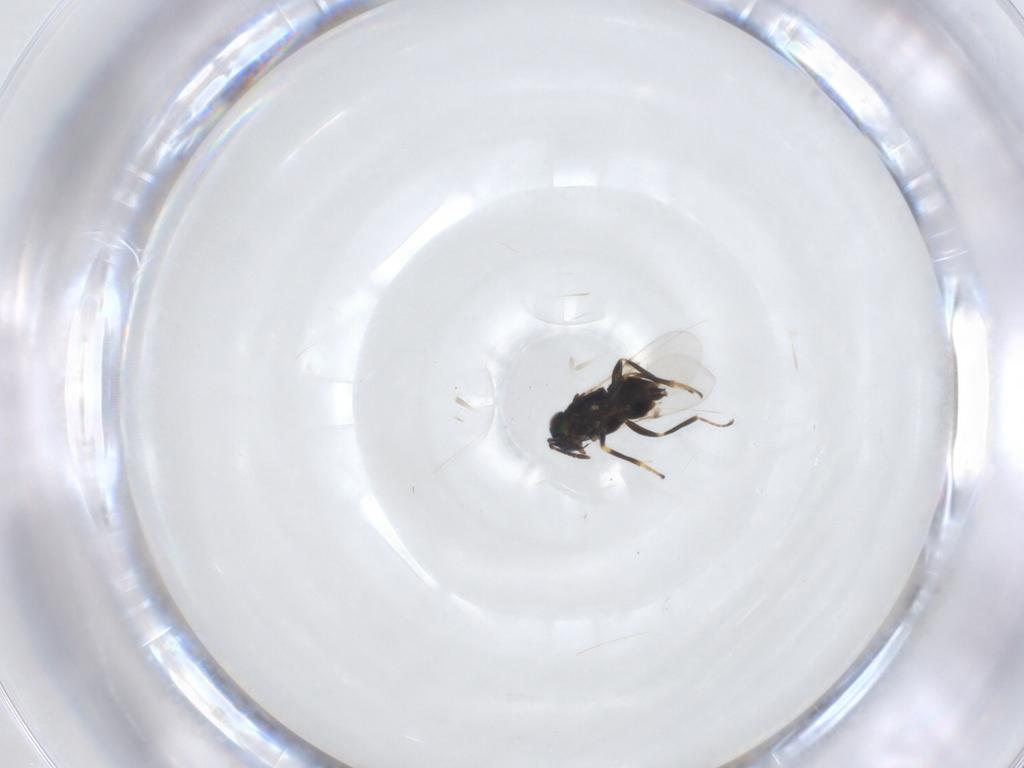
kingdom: Animalia
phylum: Arthropoda
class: Insecta
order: Hymenoptera
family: Encyrtidae
